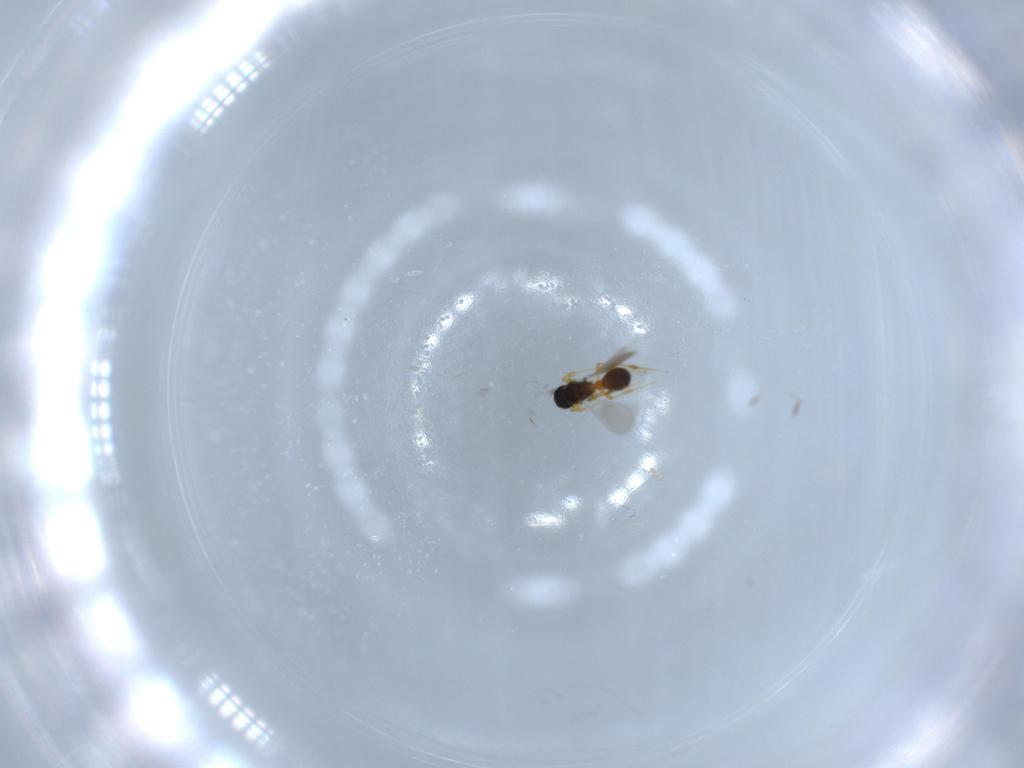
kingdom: Animalia
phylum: Arthropoda
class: Insecta
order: Hymenoptera
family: Platygastridae
